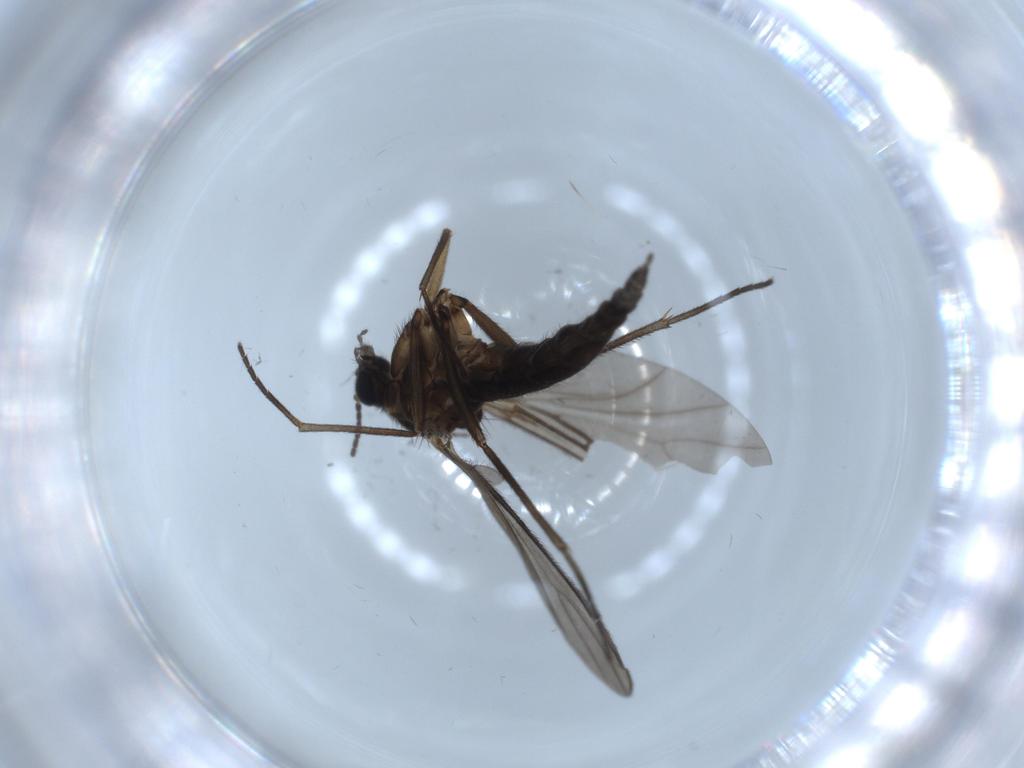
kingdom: Animalia
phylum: Arthropoda
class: Insecta
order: Diptera
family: Sciaridae
